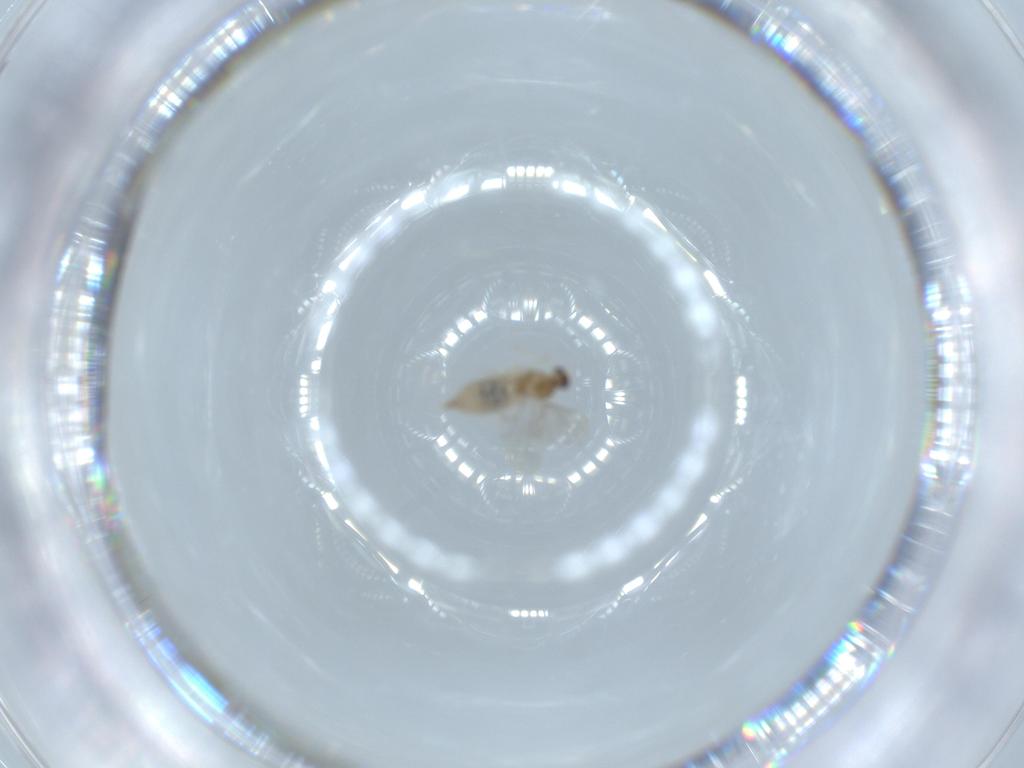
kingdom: Animalia
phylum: Arthropoda
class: Insecta
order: Diptera
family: Cecidomyiidae
